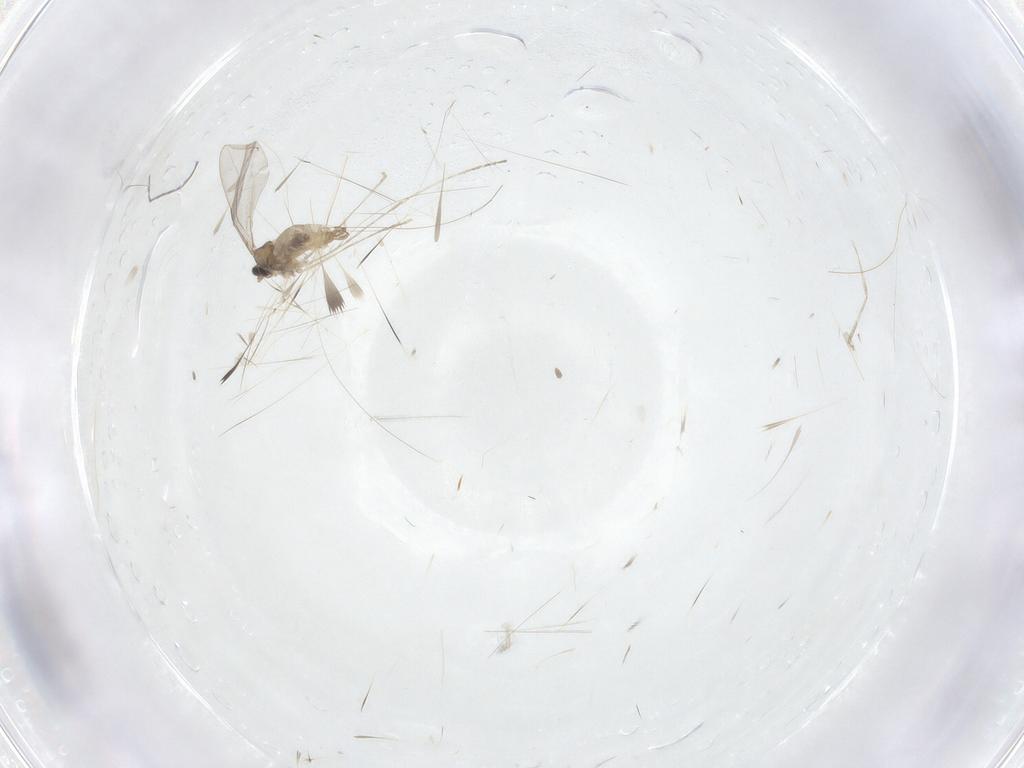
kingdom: Animalia
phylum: Arthropoda
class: Insecta
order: Diptera
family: Cecidomyiidae
